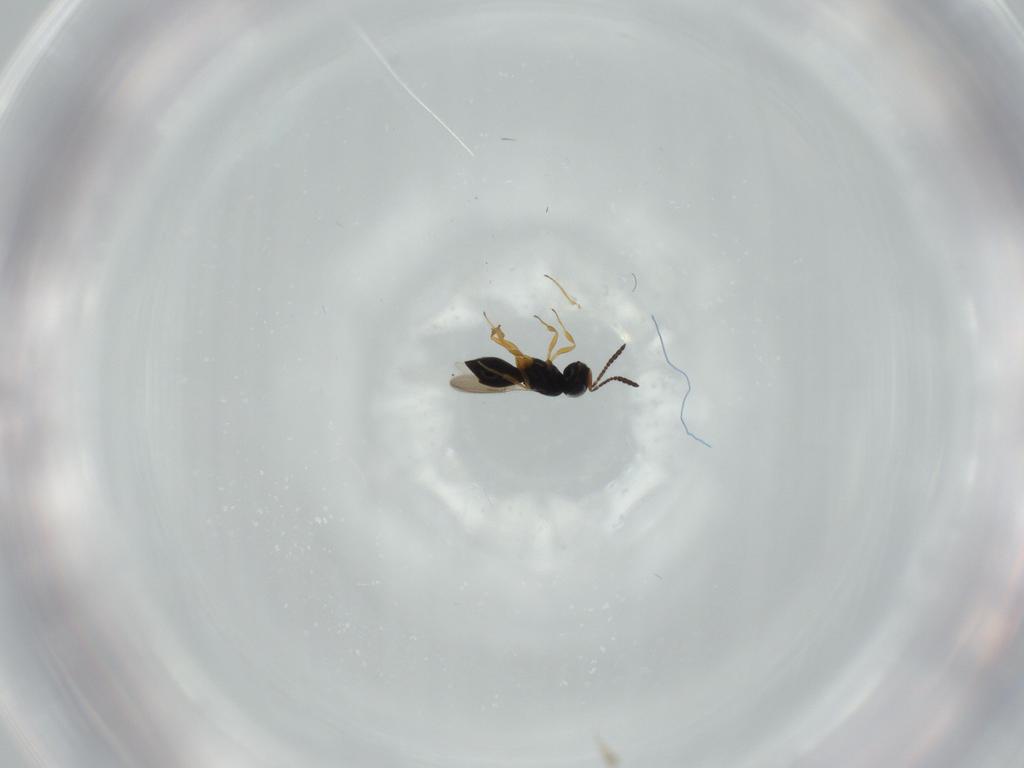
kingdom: Animalia
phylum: Arthropoda
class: Insecta
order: Hymenoptera
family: Scelionidae
